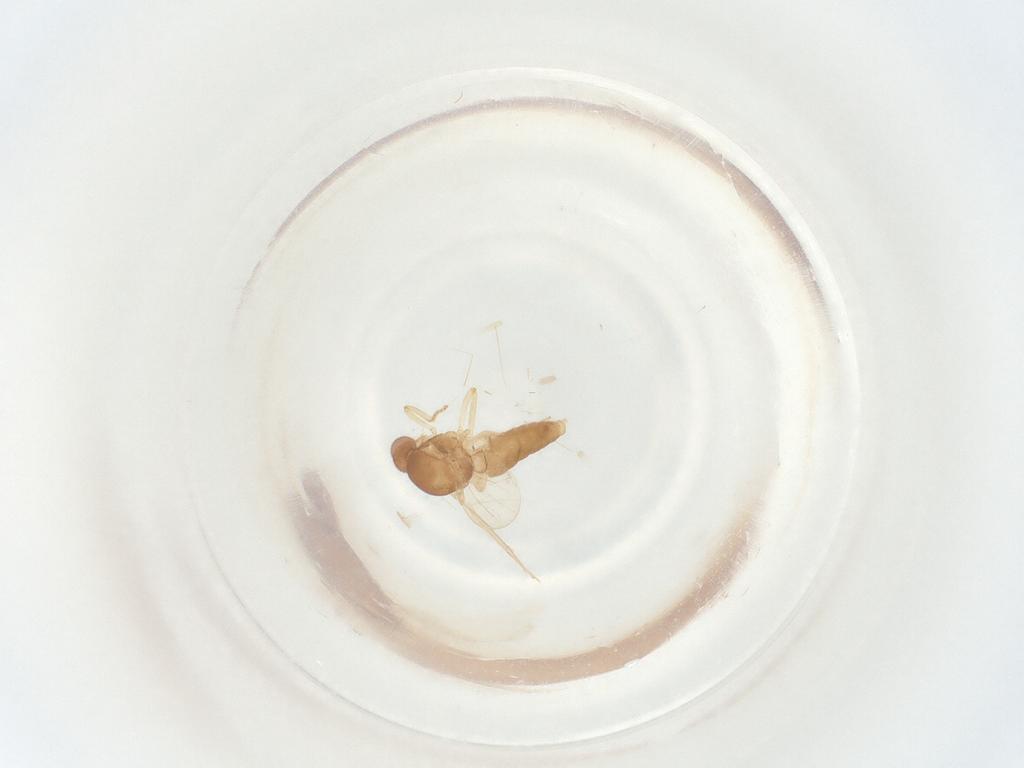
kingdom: Animalia
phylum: Arthropoda
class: Insecta
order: Diptera
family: Ceratopogonidae
